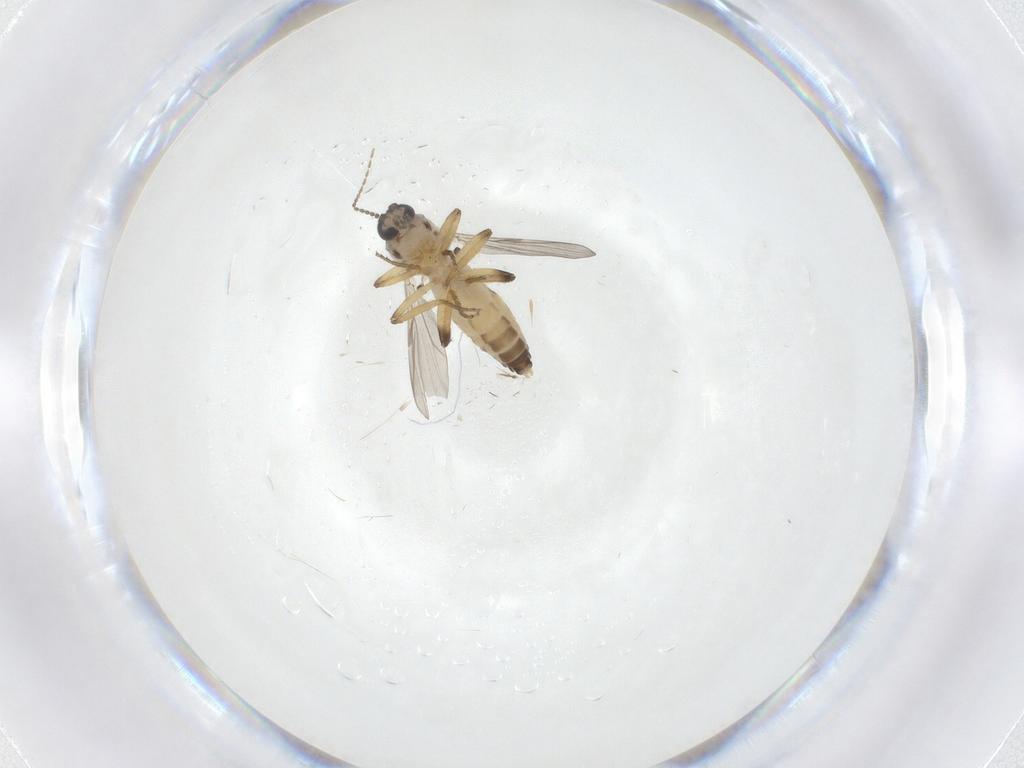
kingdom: Animalia
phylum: Arthropoda
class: Insecta
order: Diptera
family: Ceratopogonidae
